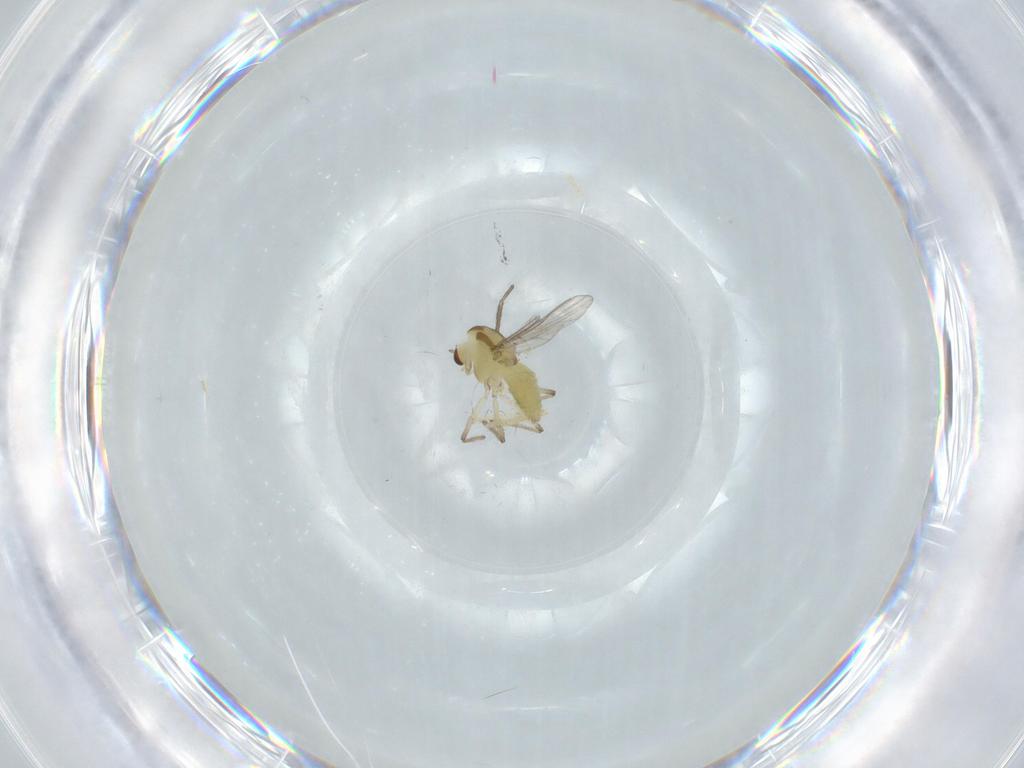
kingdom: Animalia
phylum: Arthropoda
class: Insecta
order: Diptera
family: Chironomidae
